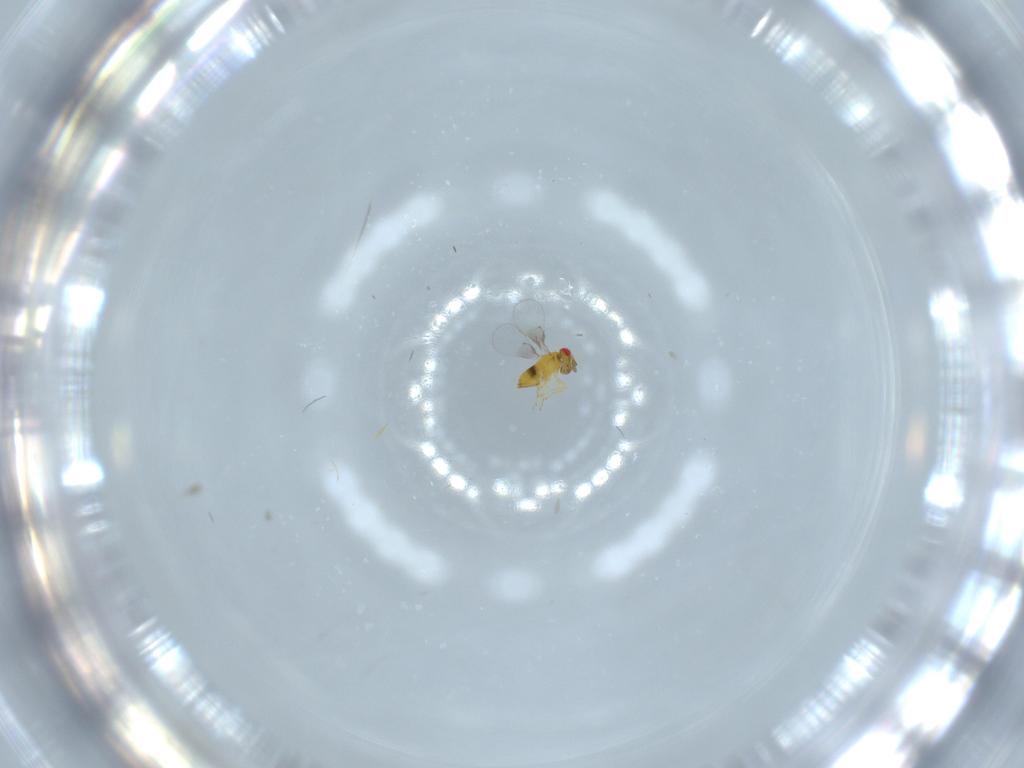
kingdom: Animalia
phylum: Arthropoda
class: Insecta
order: Hymenoptera
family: Trichogrammatidae
